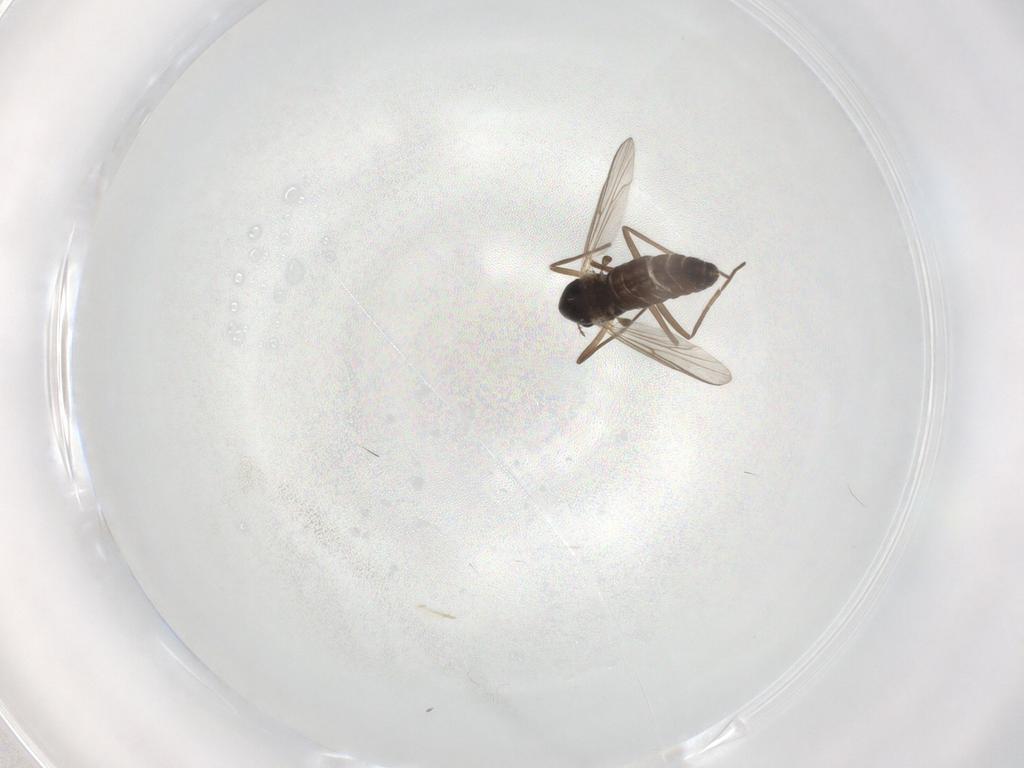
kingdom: Animalia
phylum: Arthropoda
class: Insecta
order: Diptera
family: Chironomidae
